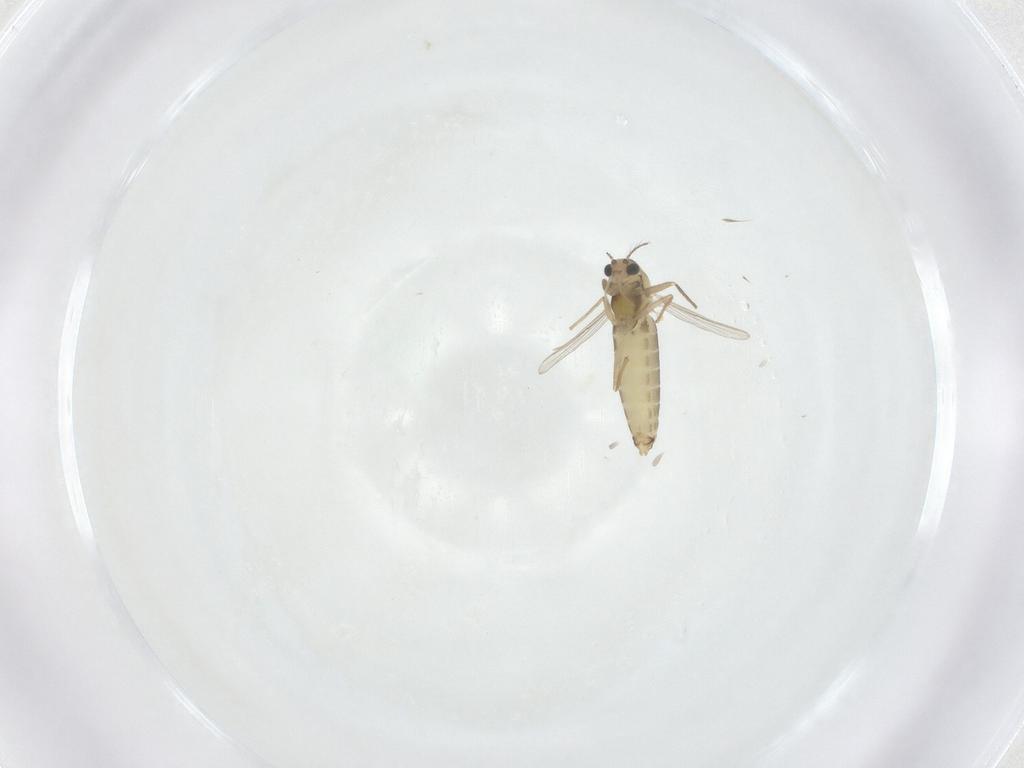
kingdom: Animalia
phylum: Arthropoda
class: Insecta
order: Diptera
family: Chironomidae
